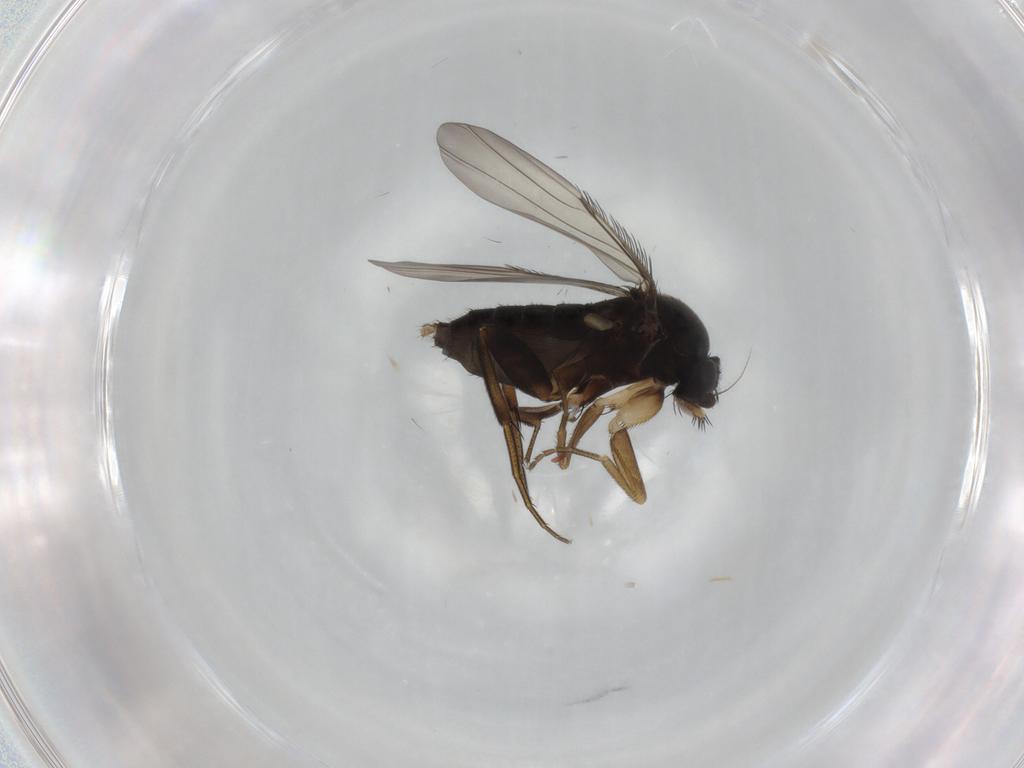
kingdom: Animalia
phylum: Arthropoda
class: Insecta
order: Diptera
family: Phoridae
